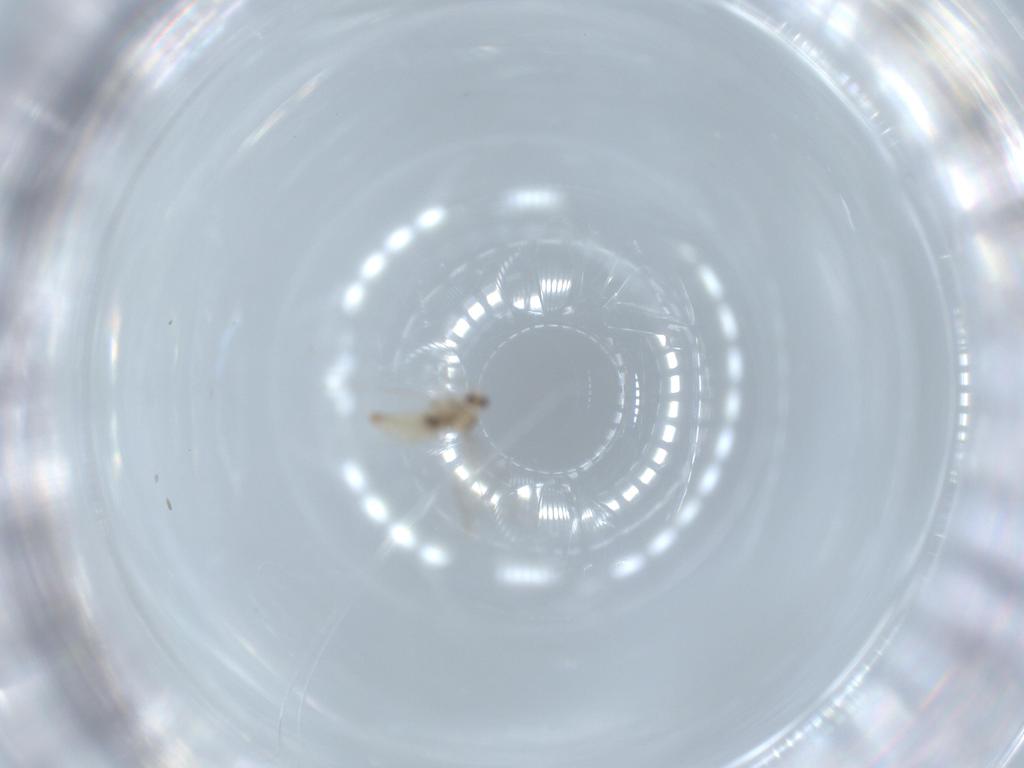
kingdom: Animalia
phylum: Arthropoda
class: Insecta
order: Diptera
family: Cecidomyiidae
